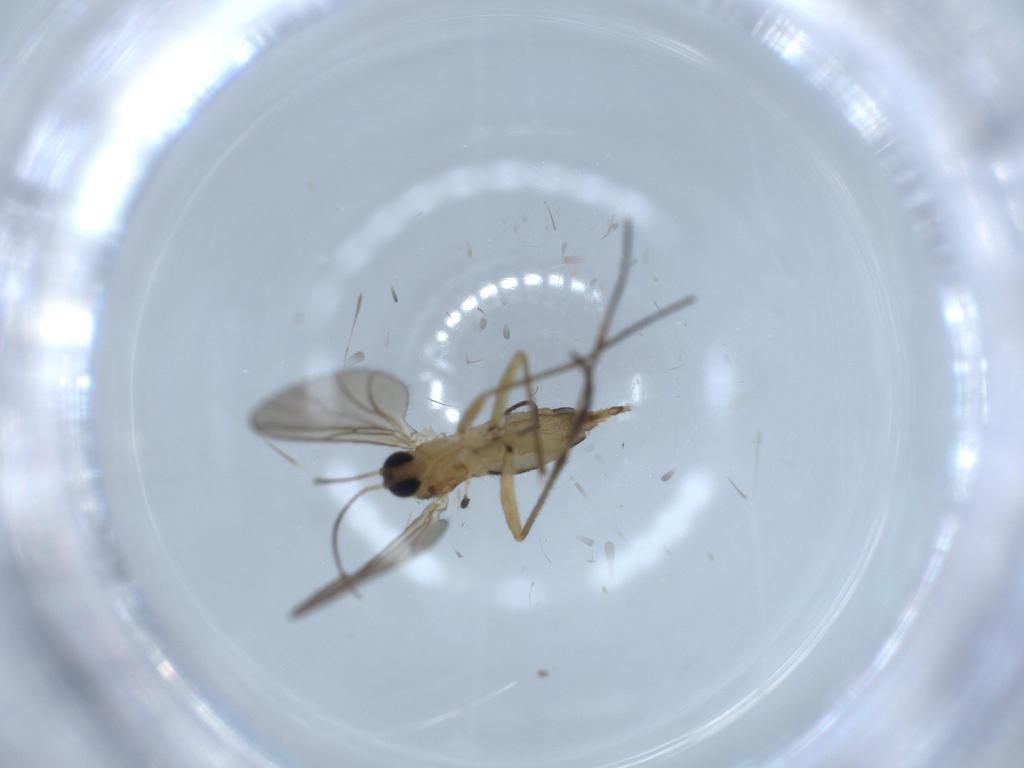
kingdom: Animalia
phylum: Arthropoda
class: Insecta
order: Diptera
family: Sciaridae
